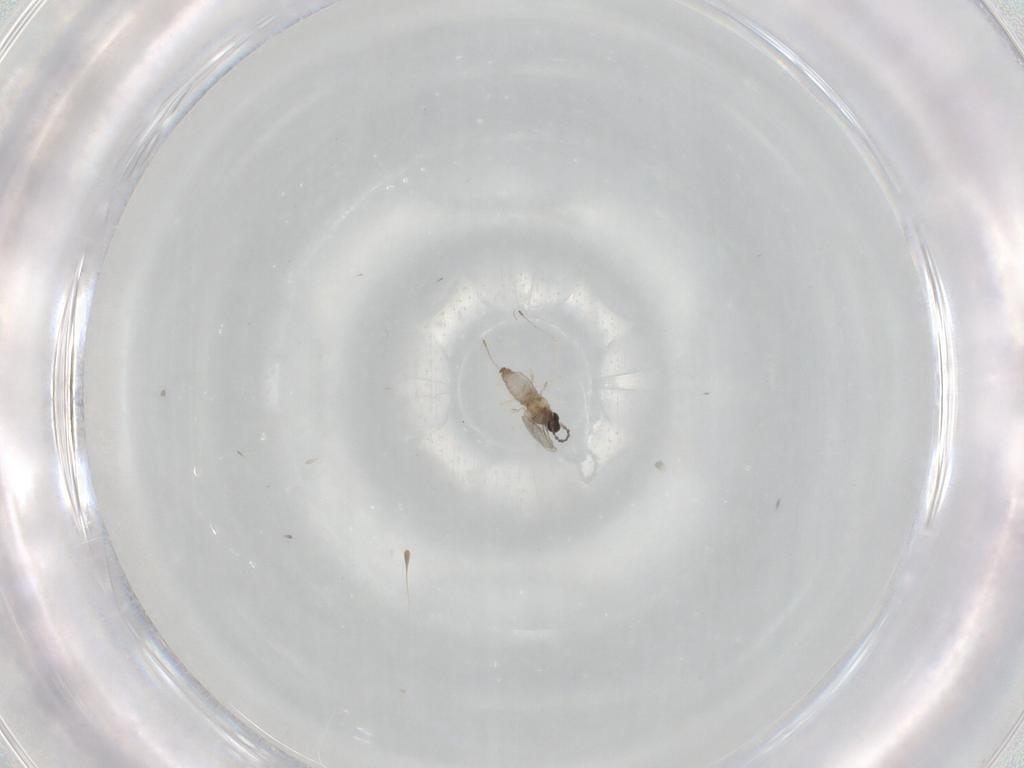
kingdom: Animalia
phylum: Arthropoda
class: Insecta
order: Diptera
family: Cecidomyiidae
